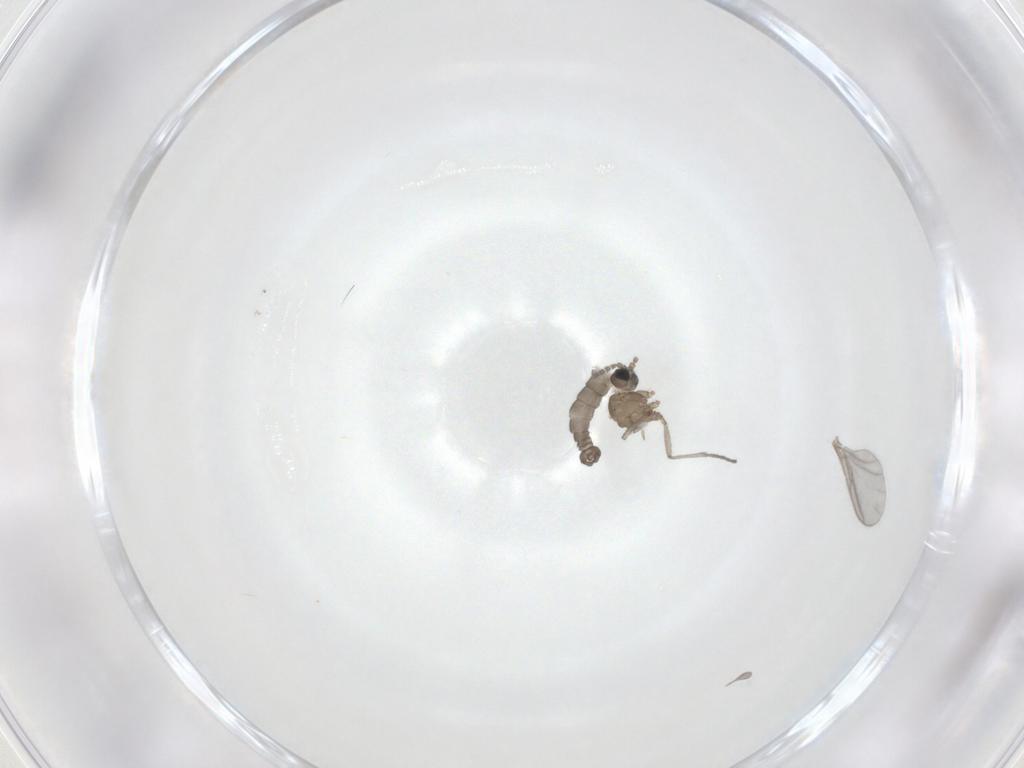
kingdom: Animalia
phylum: Arthropoda
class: Insecta
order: Diptera
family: Sciaridae
